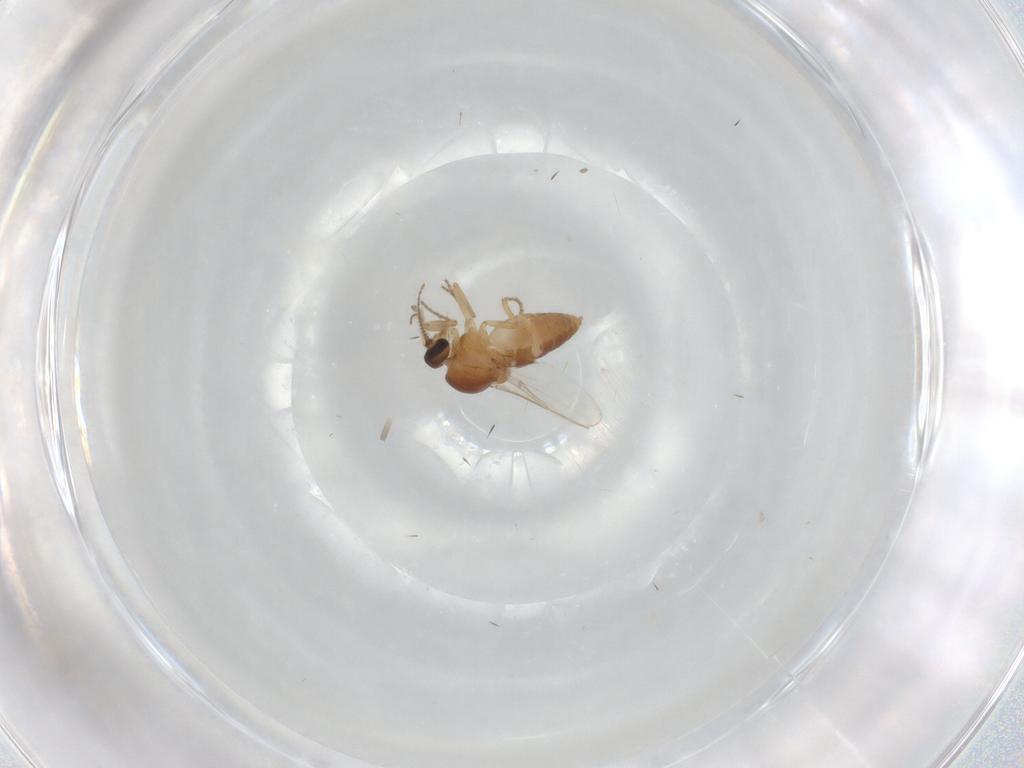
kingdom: Animalia
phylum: Arthropoda
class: Insecta
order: Diptera
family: Ceratopogonidae
